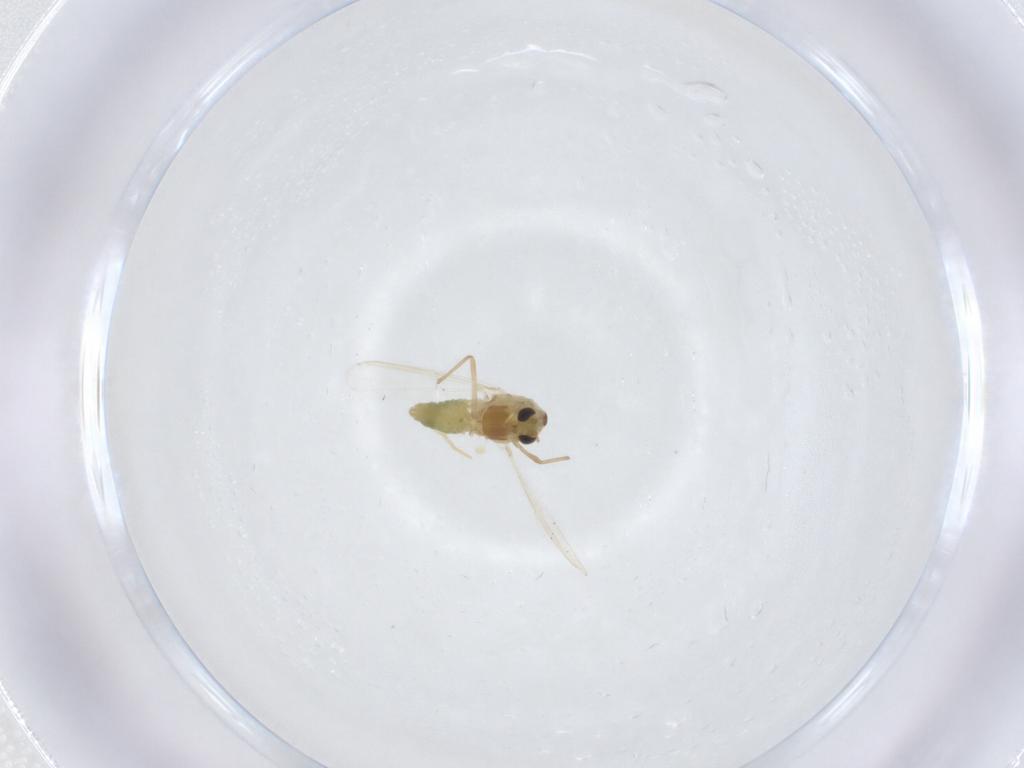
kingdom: Animalia
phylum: Arthropoda
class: Insecta
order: Diptera
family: Chironomidae
